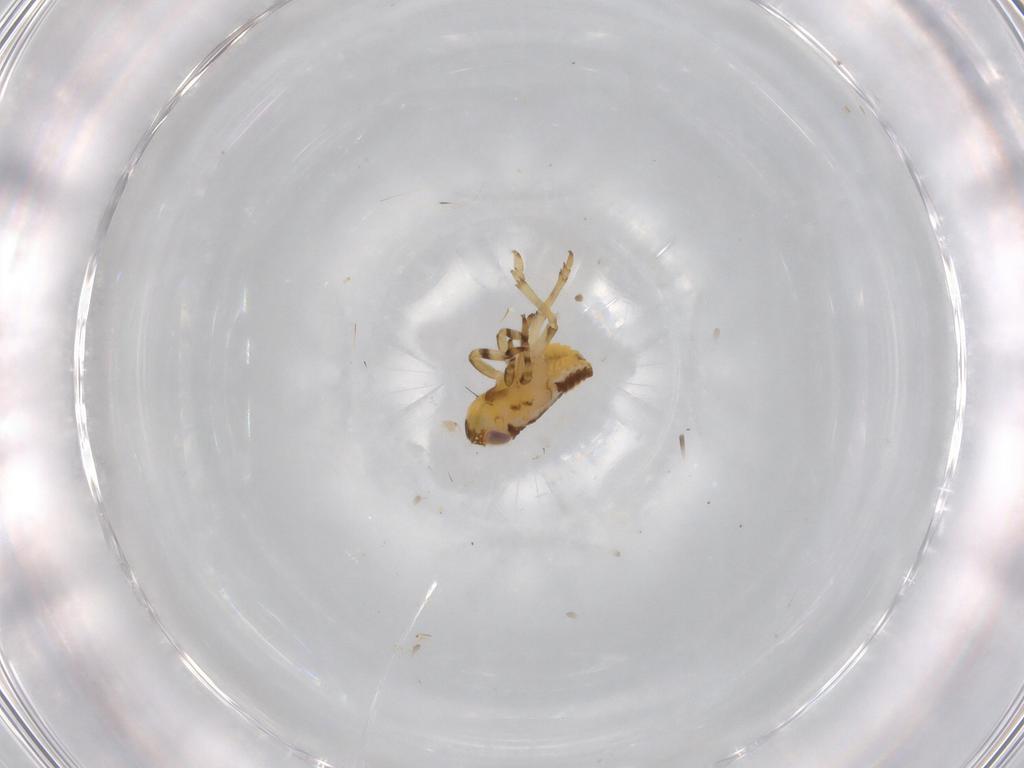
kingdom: Animalia
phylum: Arthropoda
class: Insecta
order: Hemiptera
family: Issidae
